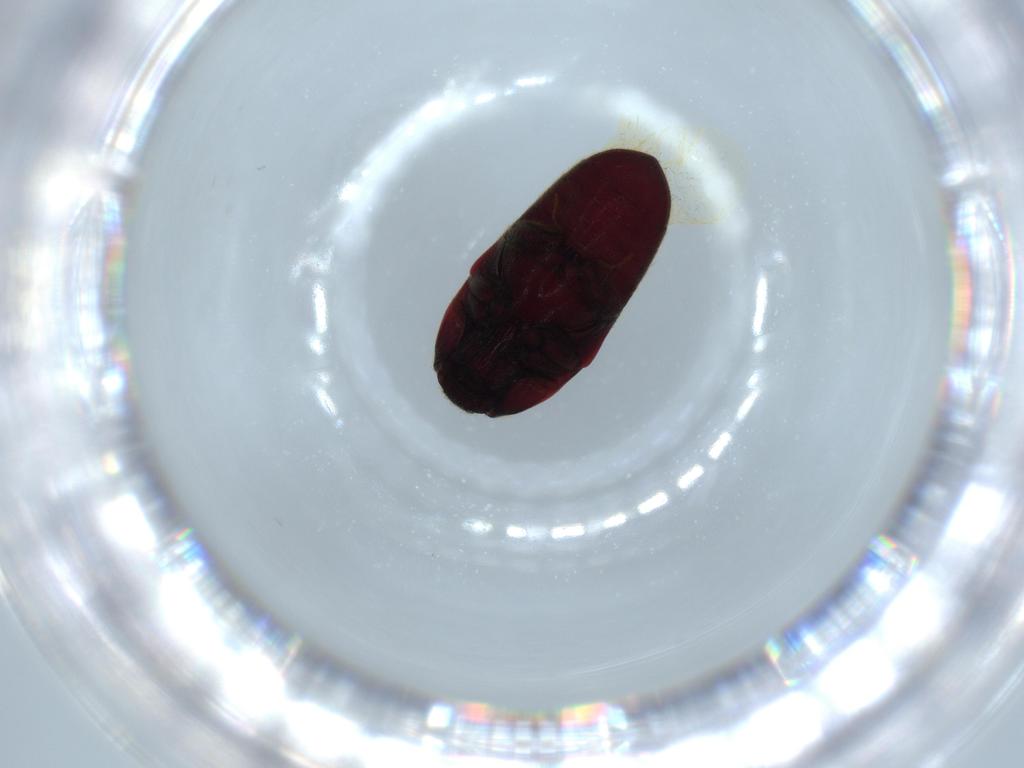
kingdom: Animalia
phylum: Arthropoda
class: Insecta
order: Coleoptera
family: Throscidae
